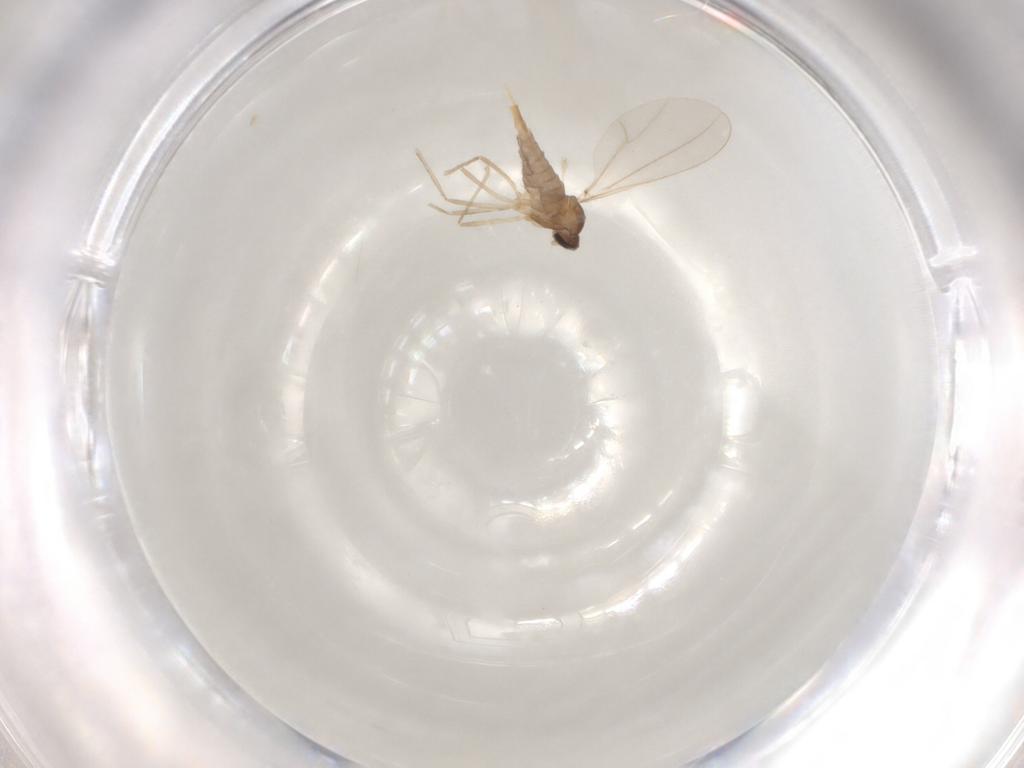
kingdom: Animalia
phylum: Arthropoda
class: Insecta
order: Diptera
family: Cecidomyiidae
